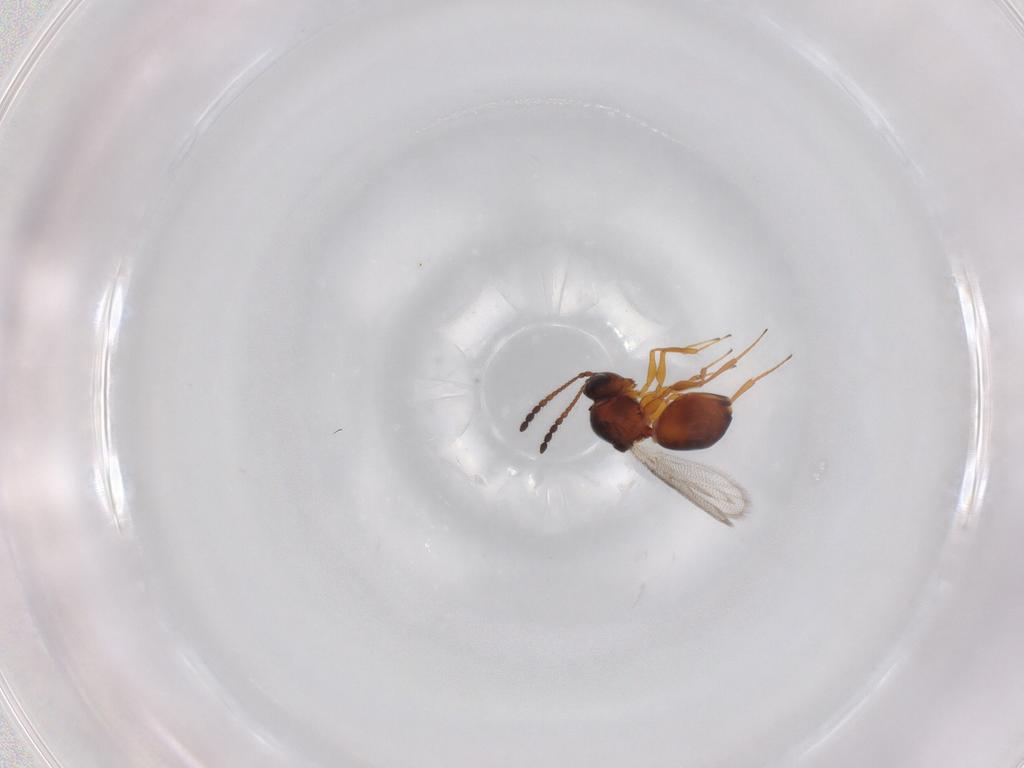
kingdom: Animalia
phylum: Arthropoda
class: Insecta
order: Hymenoptera
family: Figitidae
